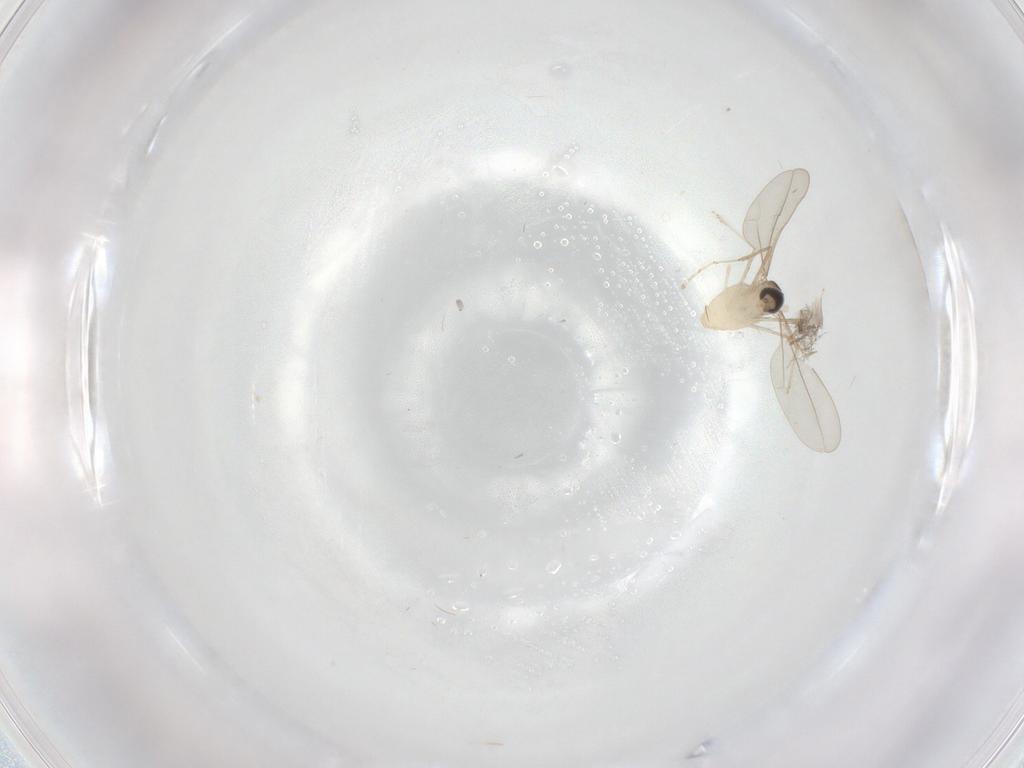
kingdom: Animalia
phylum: Arthropoda
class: Insecta
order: Diptera
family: Cecidomyiidae
